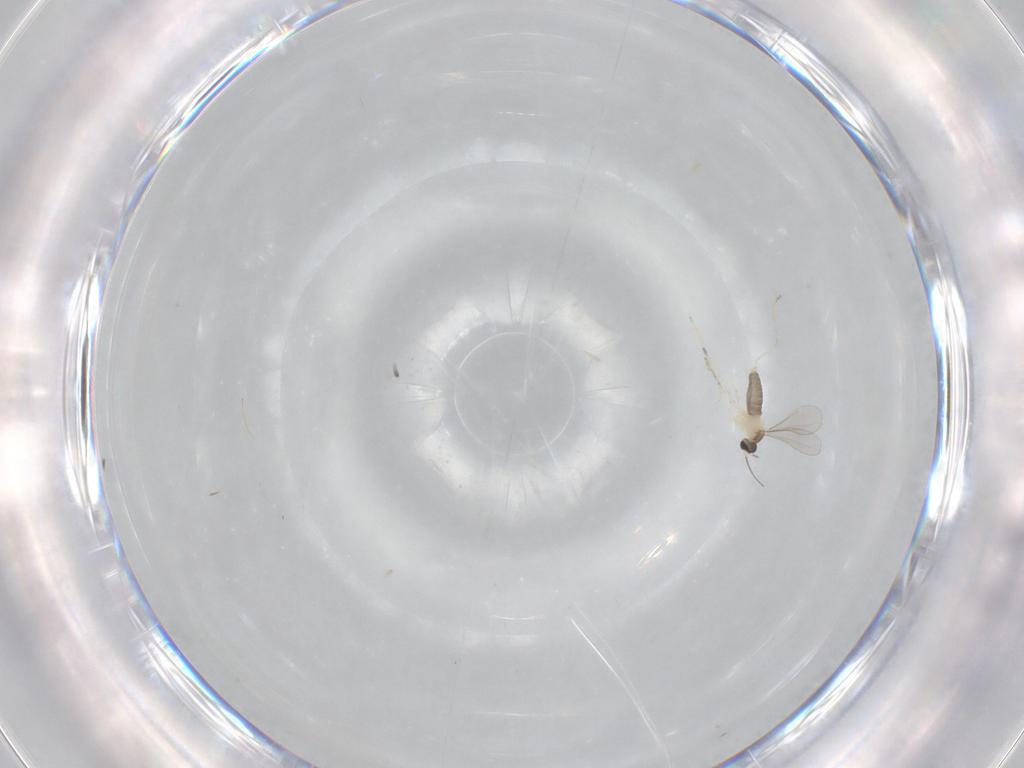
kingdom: Animalia
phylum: Arthropoda
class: Insecta
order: Diptera
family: Cecidomyiidae
